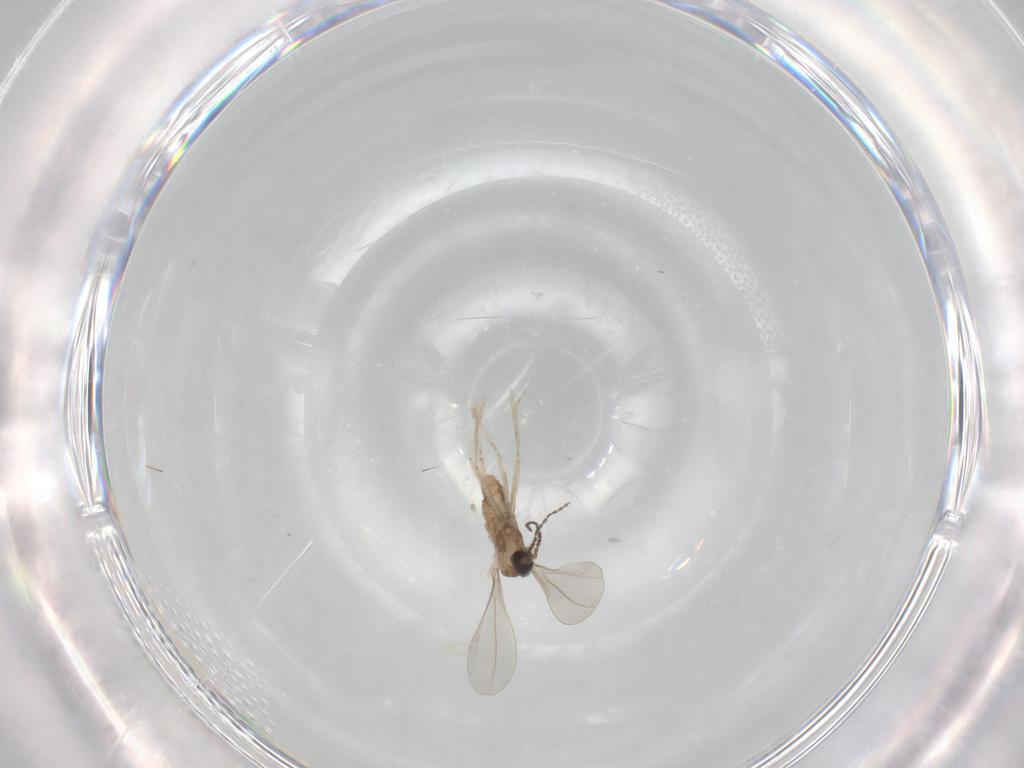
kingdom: Animalia
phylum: Arthropoda
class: Insecta
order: Diptera
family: Cecidomyiidae
